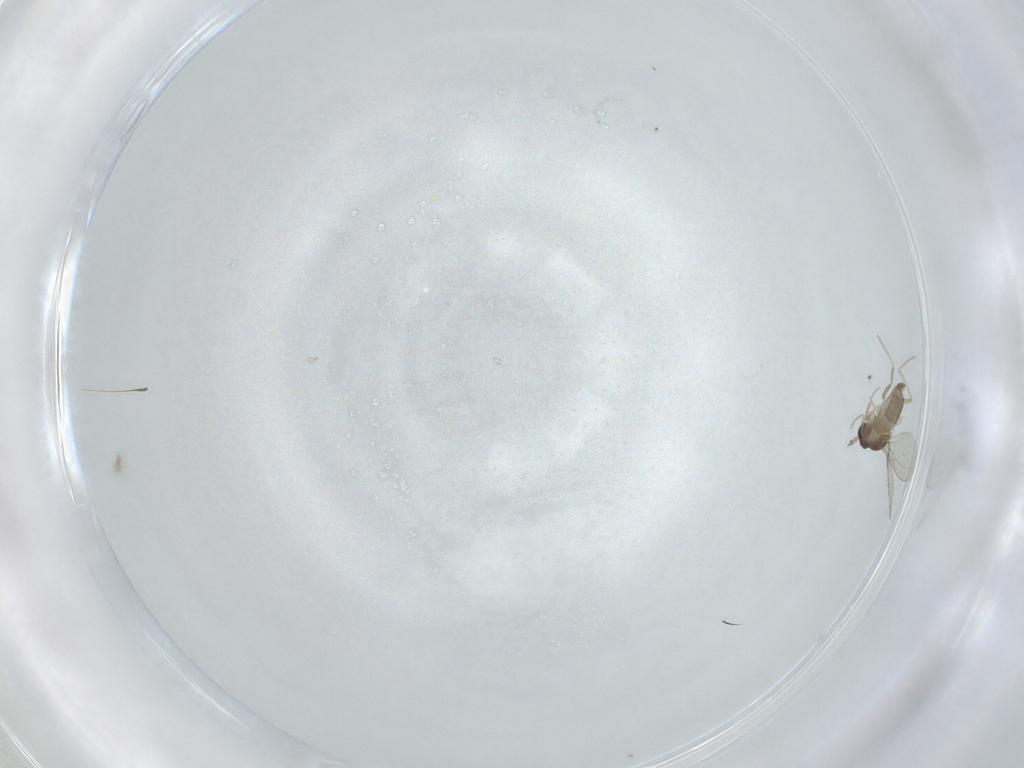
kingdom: Animalia
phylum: Arthropoda
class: Insecta
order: Diptera
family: Cecidomyiidae
